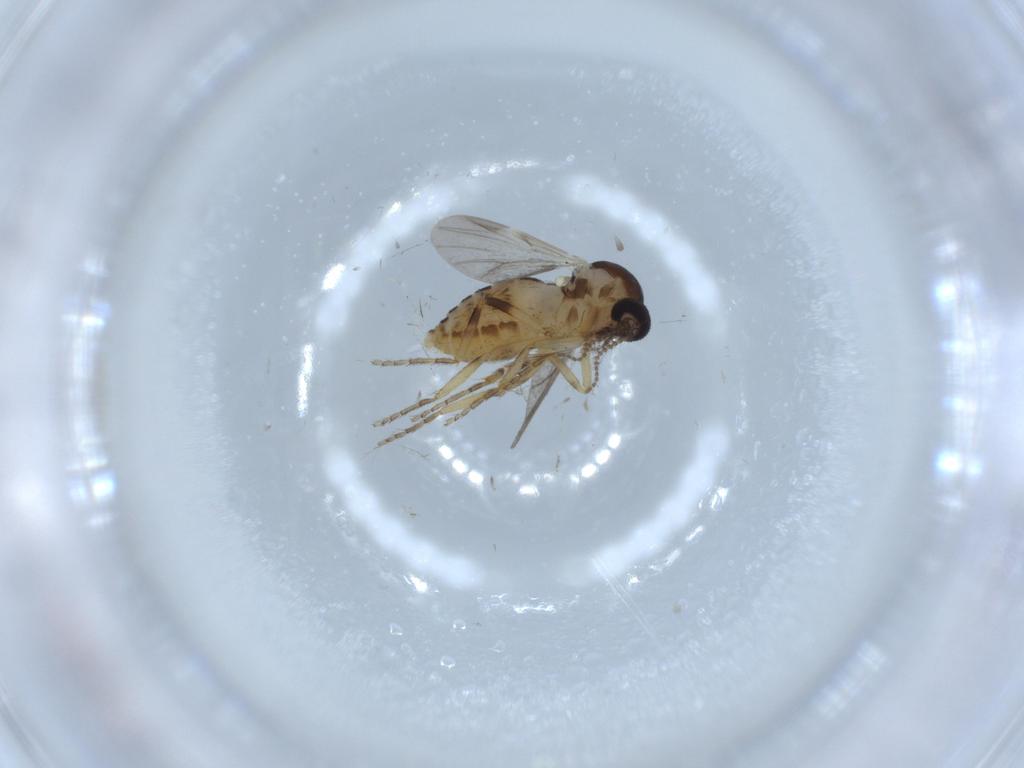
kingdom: Animalia
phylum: Arthropoda
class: Insecta
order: Diptera
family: Ceratopogonidae
